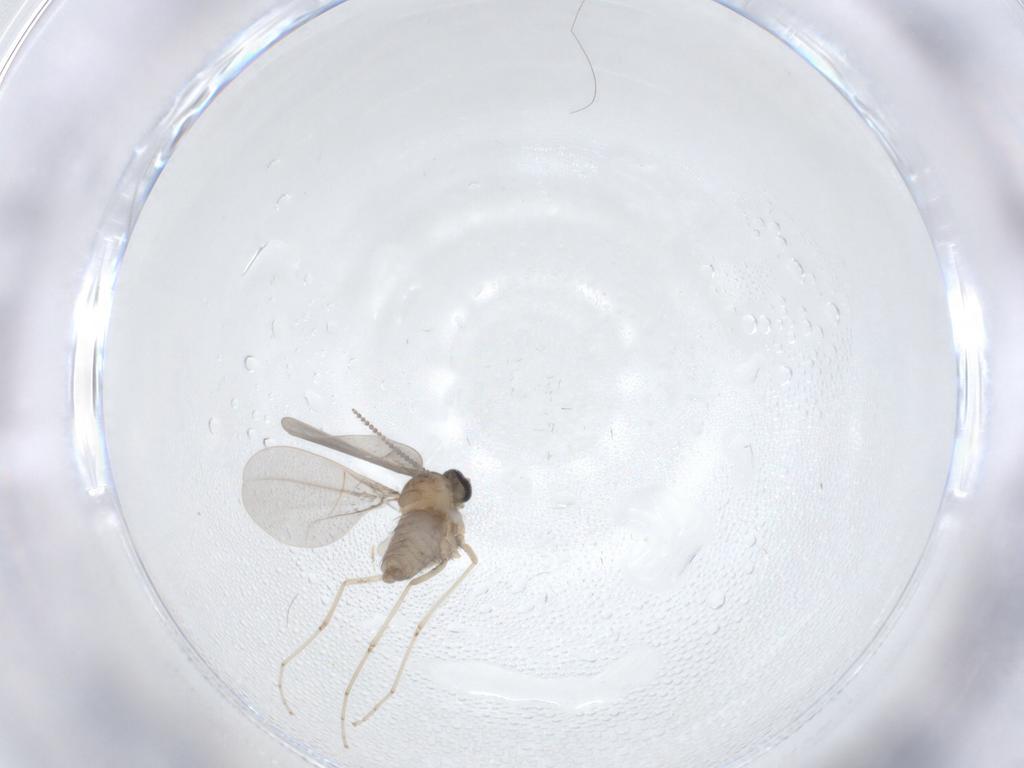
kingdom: Animalia
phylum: Arthropoda
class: Insecta
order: Diptera
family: Cecidomyiidae
